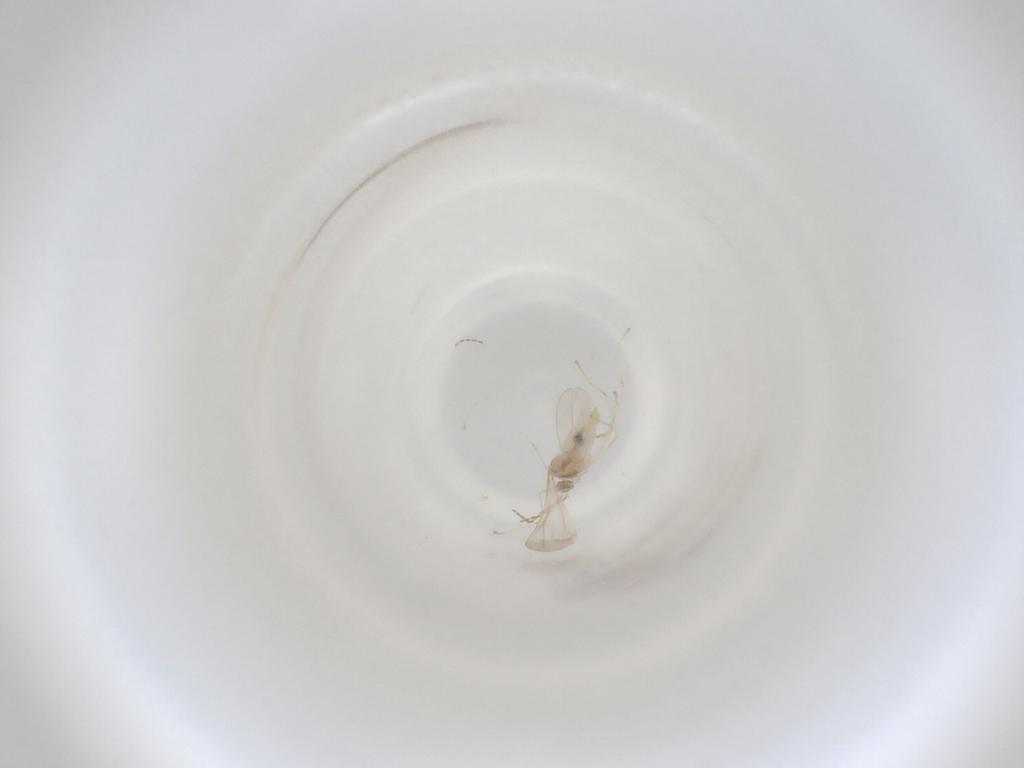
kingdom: Animalia
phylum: Arthropoda
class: Insecta
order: Diptera
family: Cecidomyiidae
